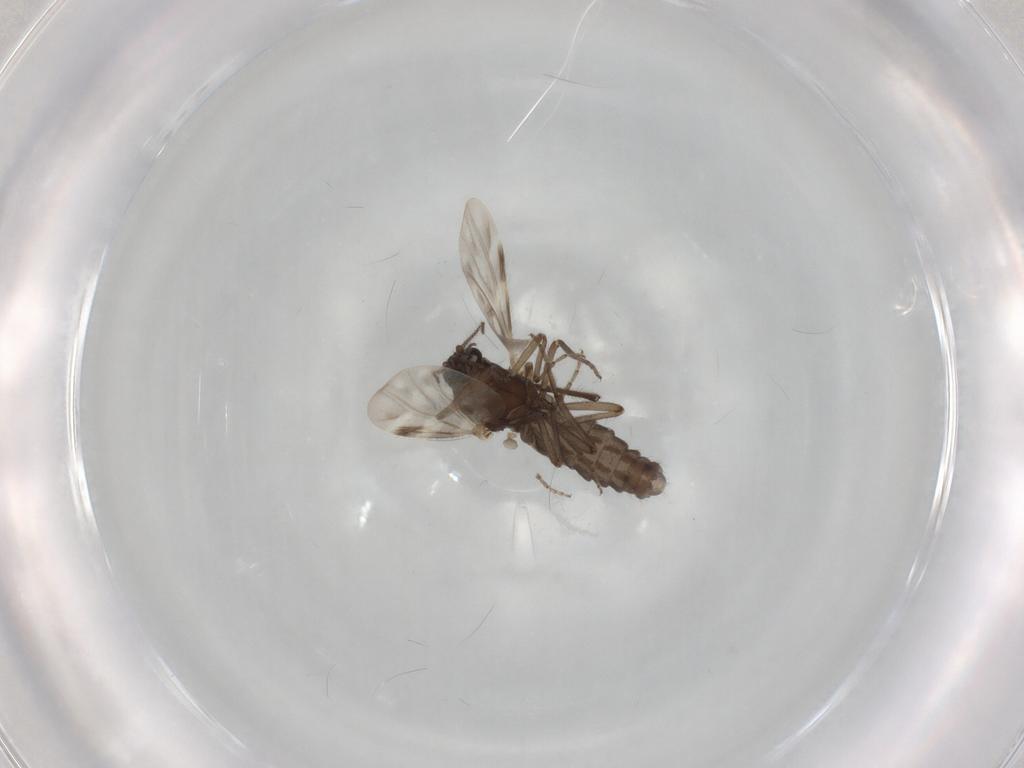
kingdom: Animalia
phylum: Arthropoda
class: Insecta
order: Diptera
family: Chironomidae
